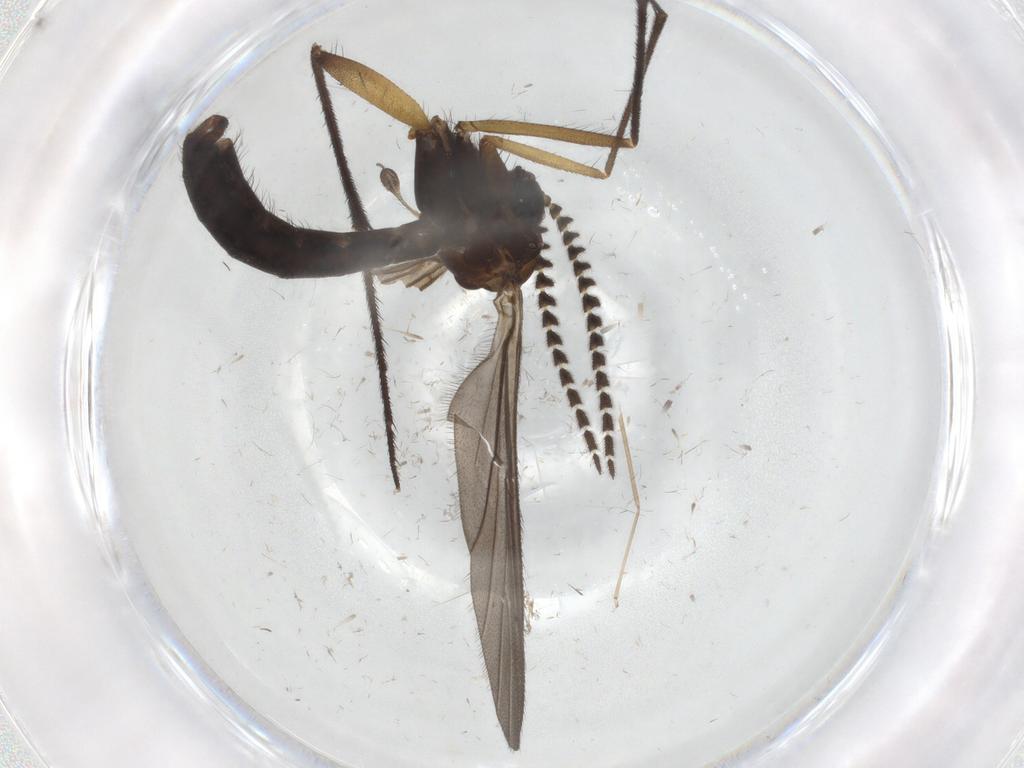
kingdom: Animalia
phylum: Arthropoda
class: Insecta
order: Diptera
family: Phoridae
